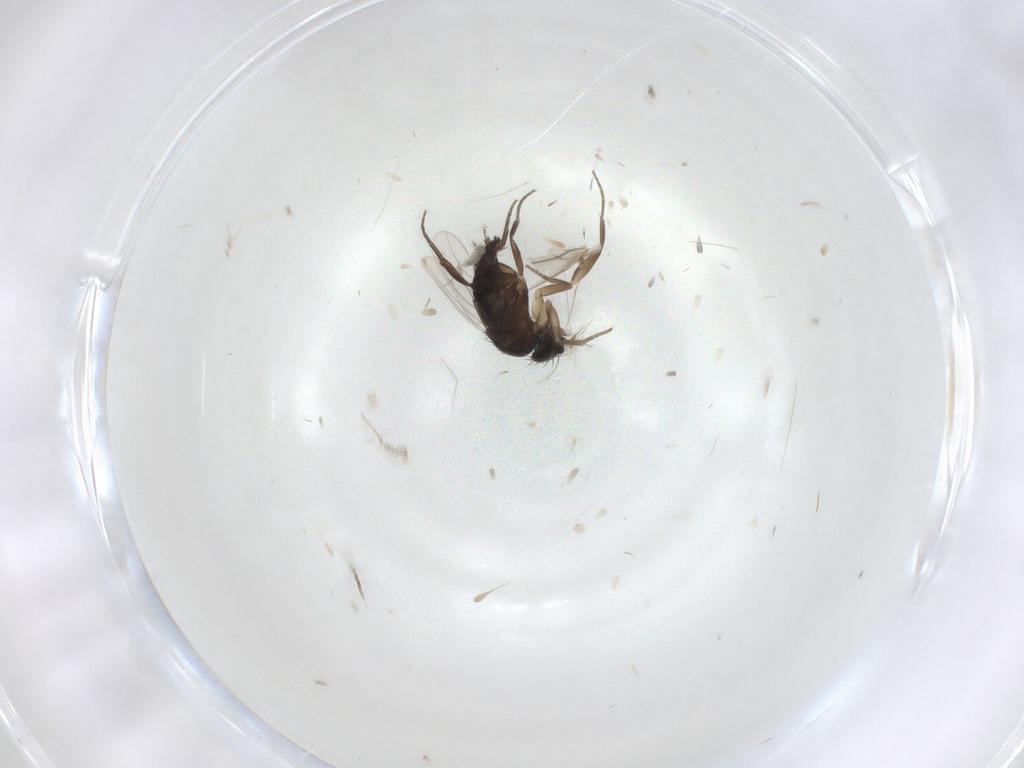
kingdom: Animalia
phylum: Arthropoda
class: Insecta
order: Diptera
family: Phoridae
